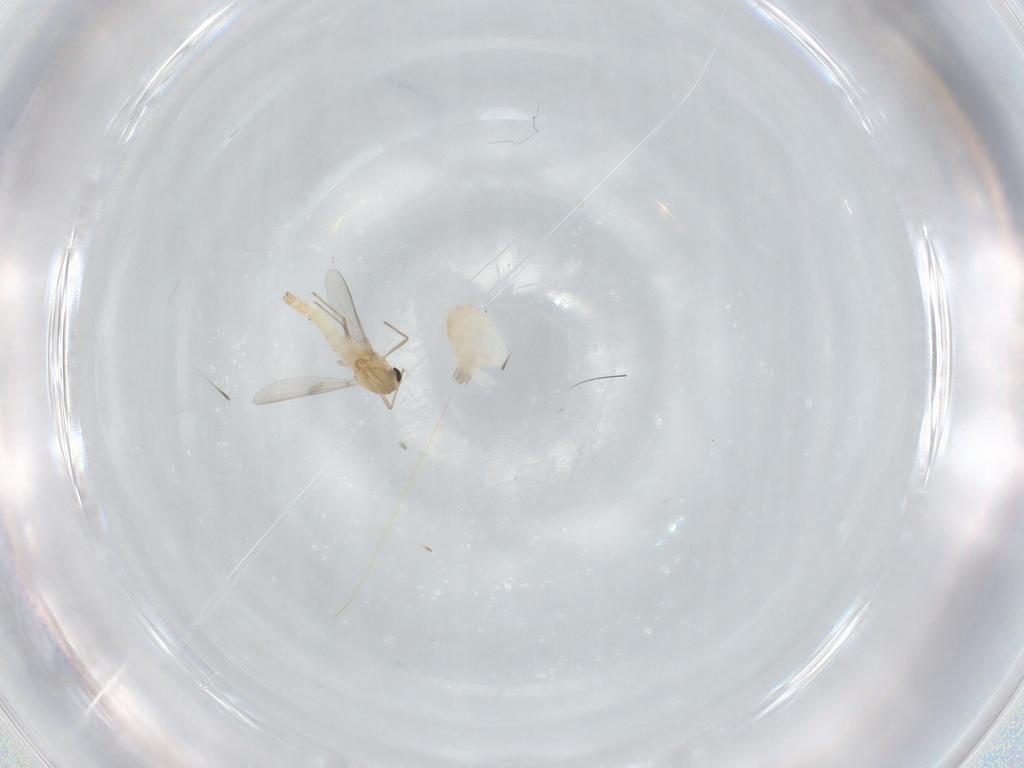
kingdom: Animalia
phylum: Arthropoda
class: Insecta
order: Diptera
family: Chironomidae
